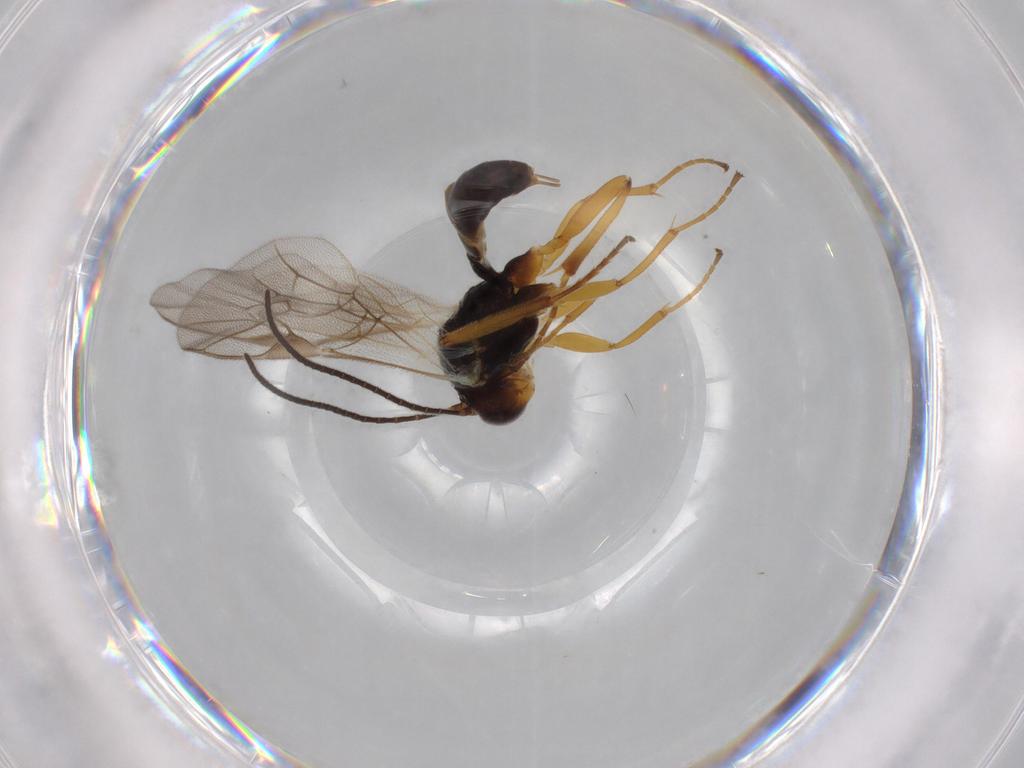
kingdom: Animalia
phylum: Arthropoda
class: Insecta
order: Hymenoptera
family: Ichneumonidae
